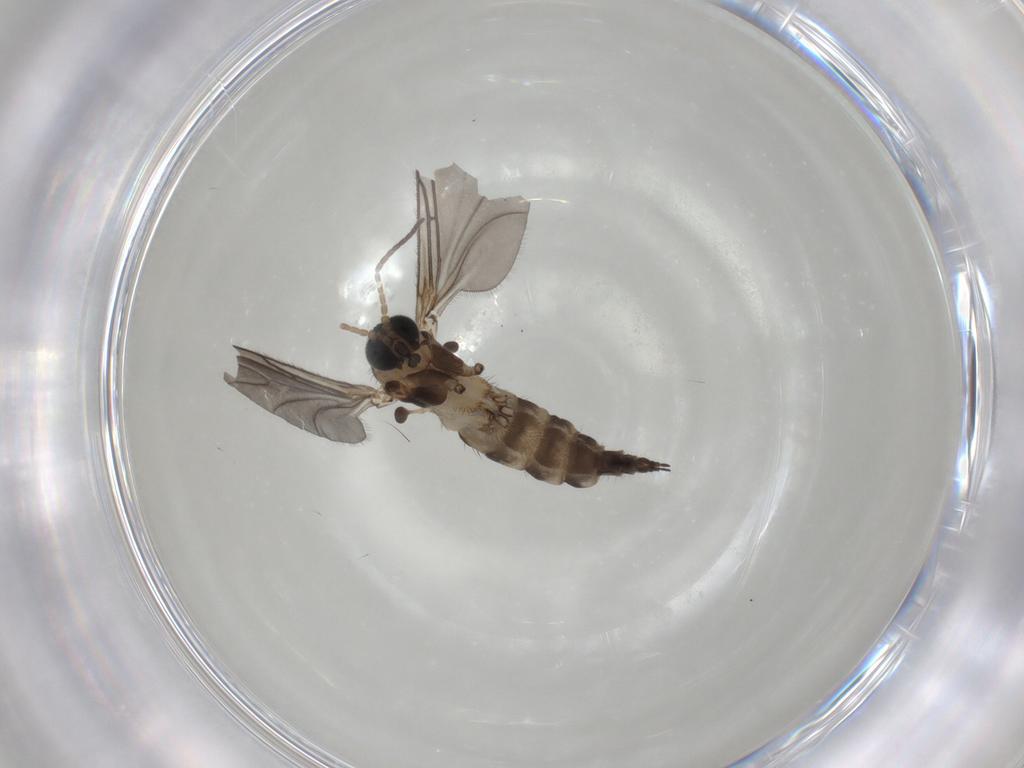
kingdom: Animalia
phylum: Arthropoda
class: Insecta
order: Diptera
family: Sciaridae
